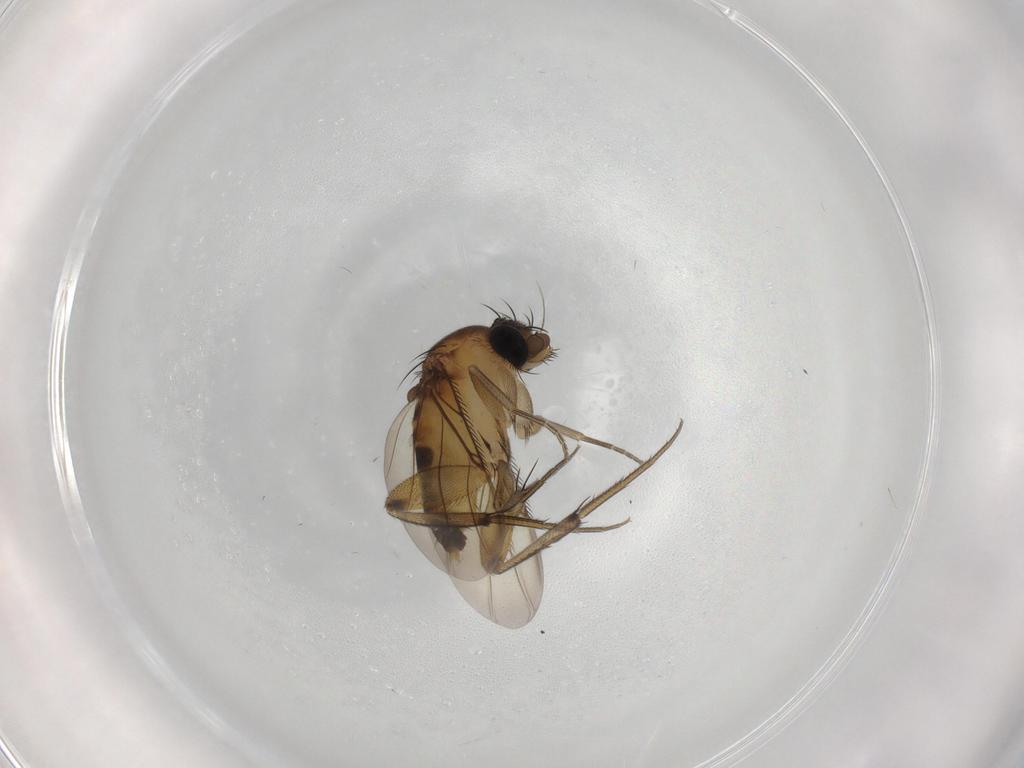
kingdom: Animalia
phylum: Arthropoda
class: Insecta
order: Diptera
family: Phoridae
